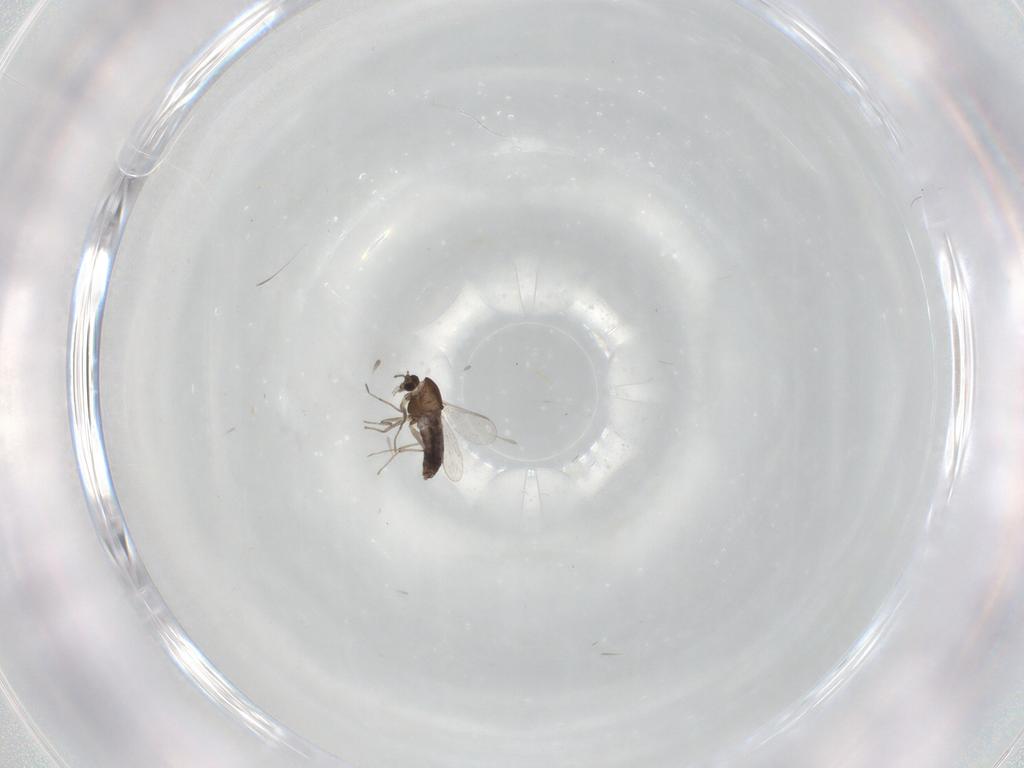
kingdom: Animalia
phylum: Arthropoda
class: Insecta
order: Diptera
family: Chironomidae
